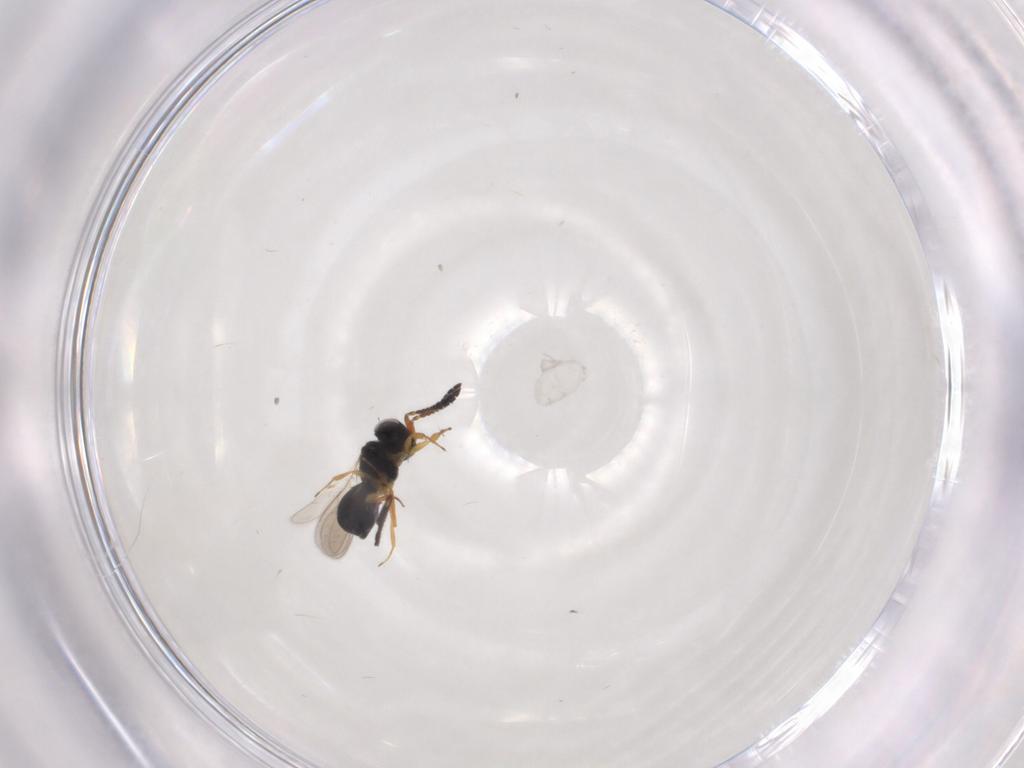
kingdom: Animalia
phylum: Arthropoda
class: Insecta
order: Hymenoptera
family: Scelionidae
